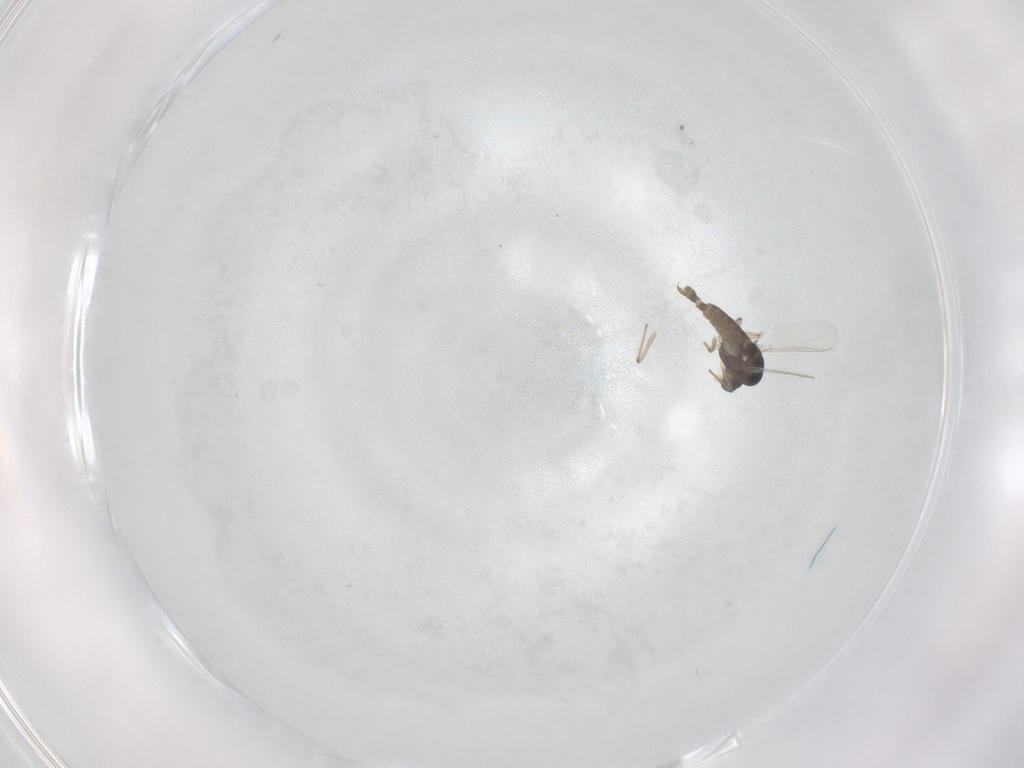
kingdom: Animalia
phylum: Arthropoda
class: Insecta
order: Diptera
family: Chironomidae
